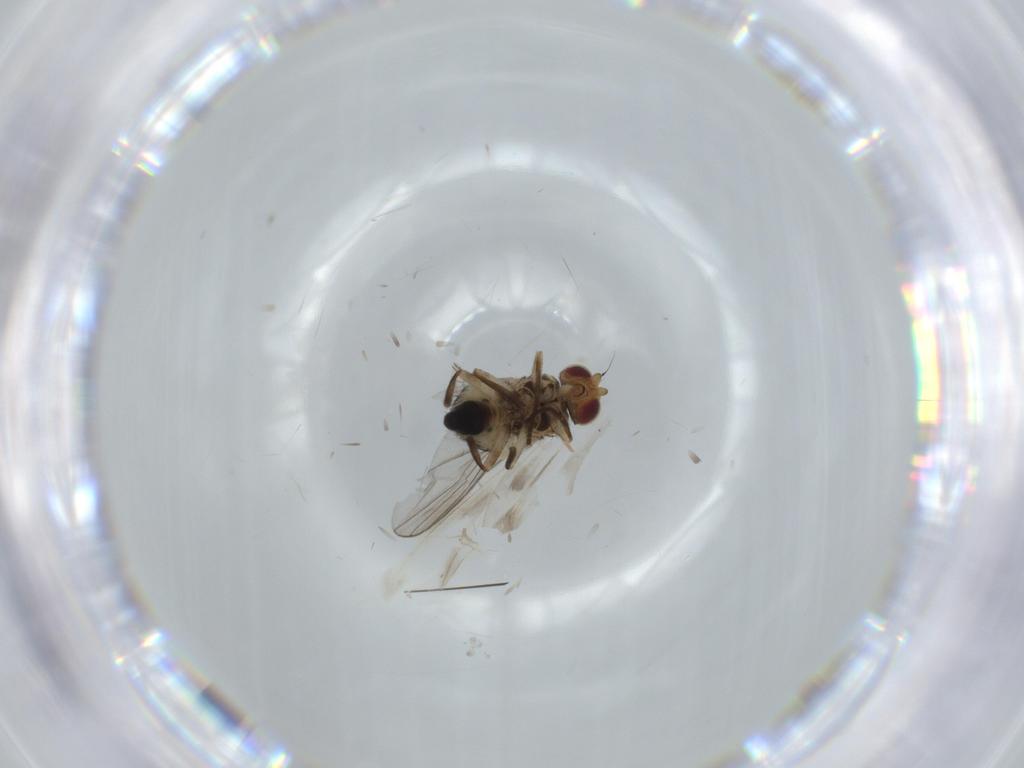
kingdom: Animalia
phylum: Arthropoda
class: Insecta
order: Diptera
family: Agromyzidae
